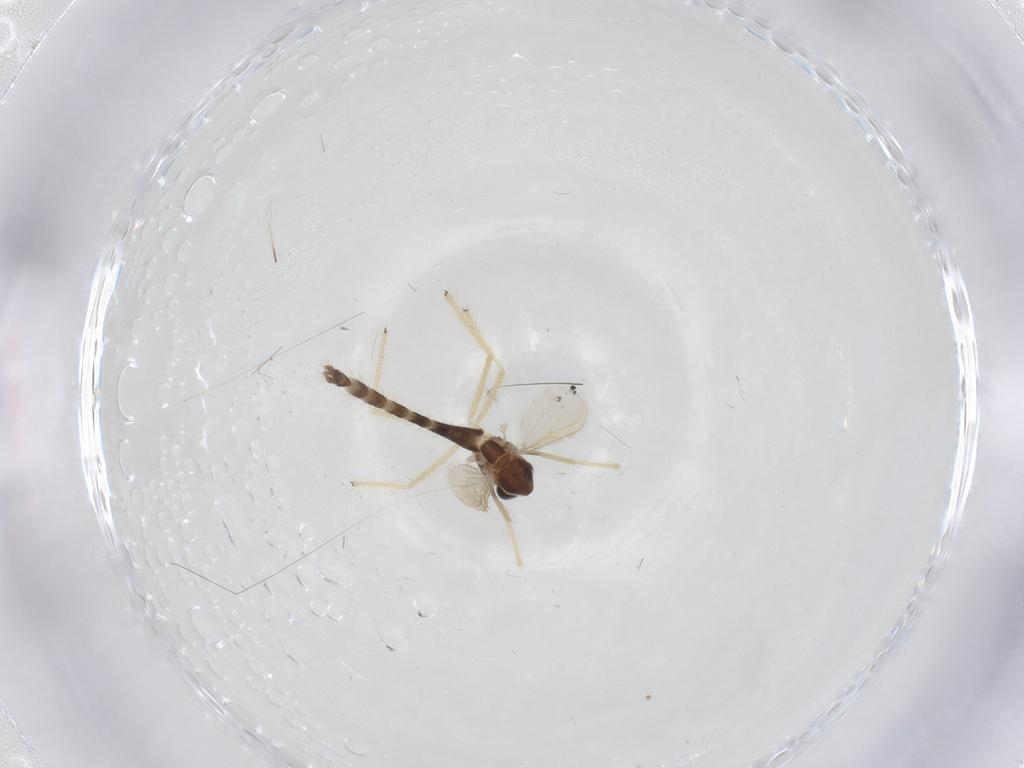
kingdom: Animalia
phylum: Arthropoda
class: Insecta
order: Diptera
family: Chironomidae
